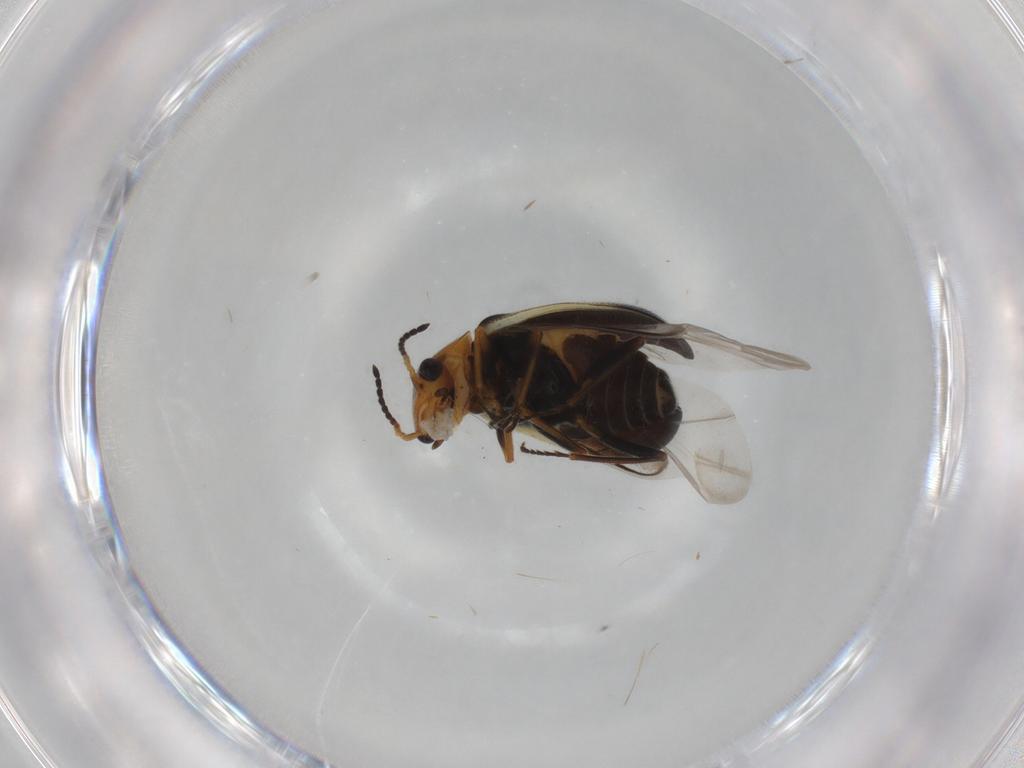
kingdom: Animalia
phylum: Arthropoda
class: Insecta
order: Coleoptera
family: Melyridae
